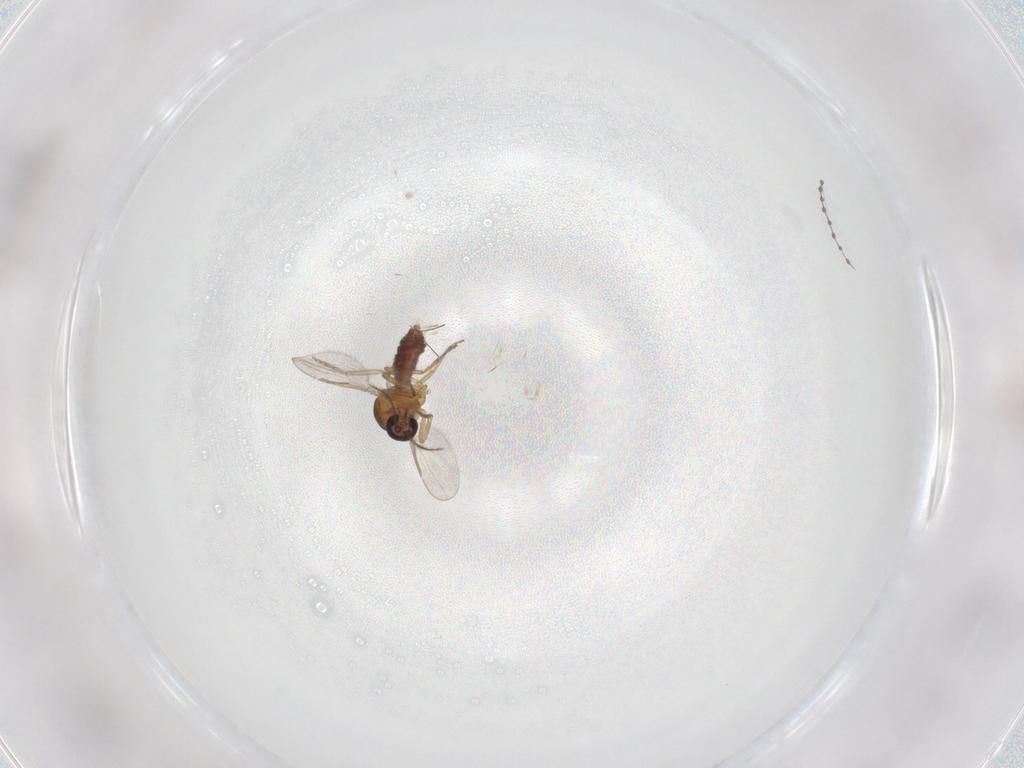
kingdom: Animalia
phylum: Arthropoda
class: Insecta
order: Diptera
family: Ceratopogonidae
